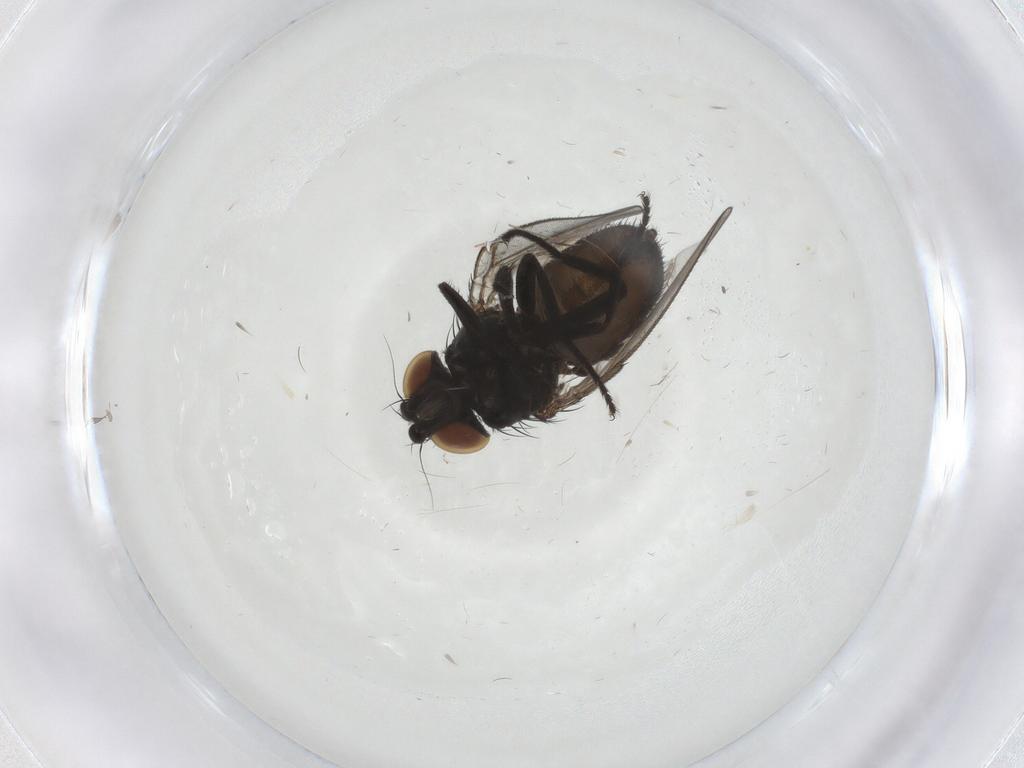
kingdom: Animalia
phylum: Arthropoda
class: Insecta
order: Diptera
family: Milichiidae
